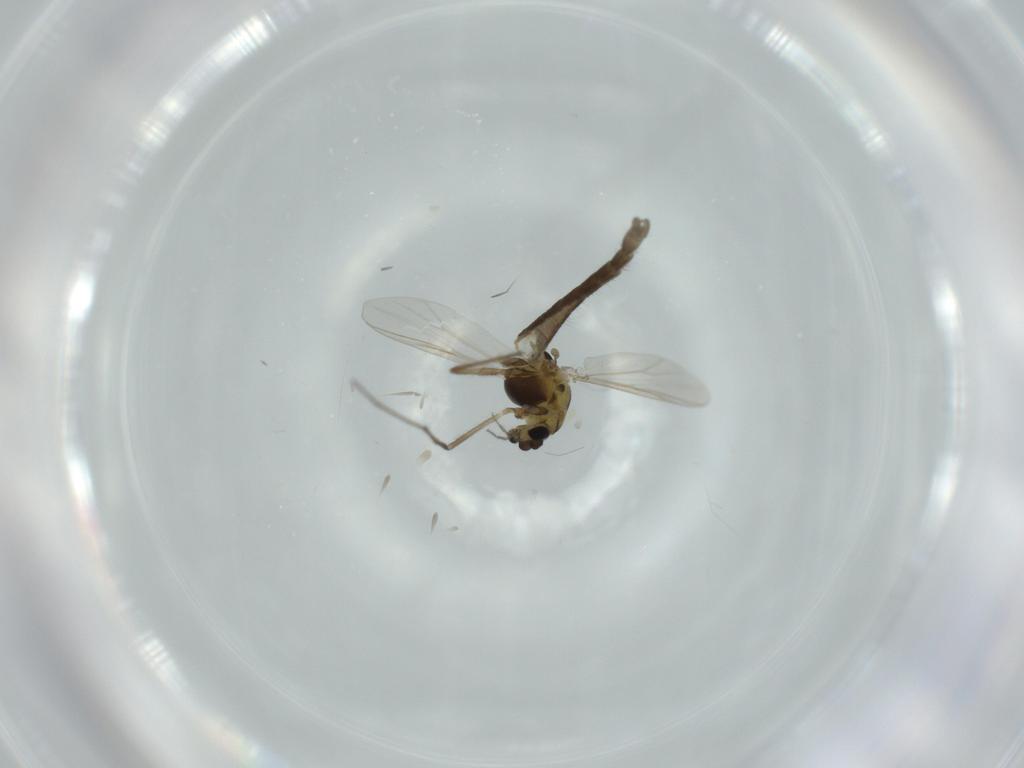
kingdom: Animalia
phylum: Arthropoda
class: Insecta
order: Diptera
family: Chironomidae
